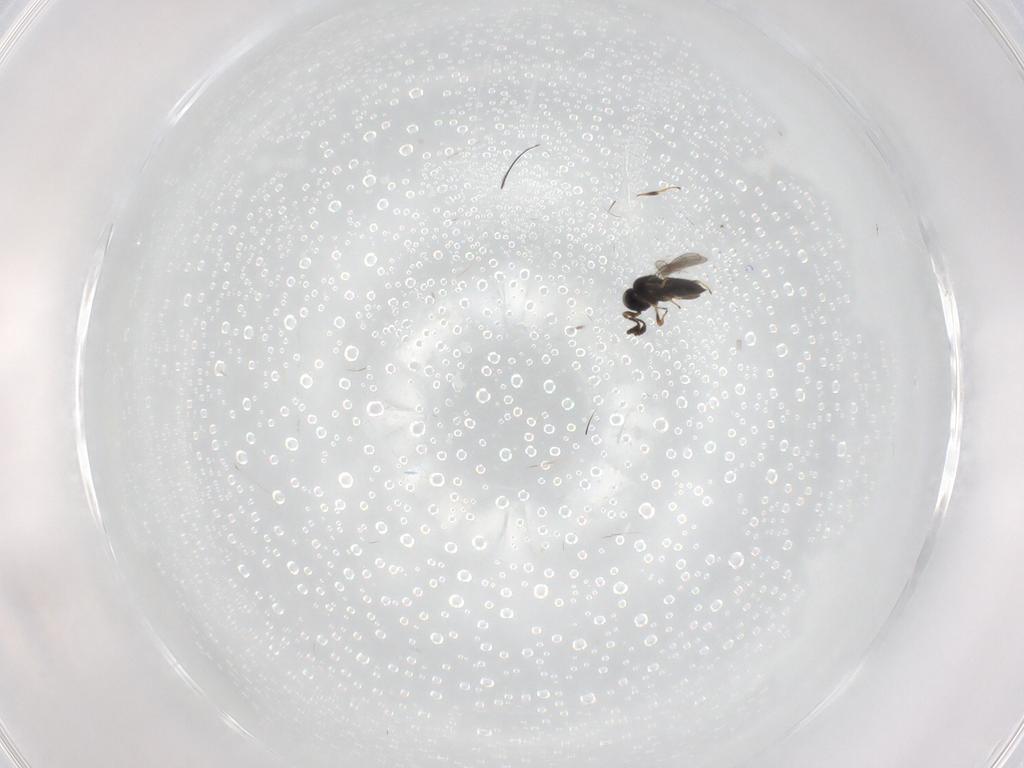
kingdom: Animalia
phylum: Arthropoda
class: Insecta
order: Hymenoptera
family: Scelionidae
